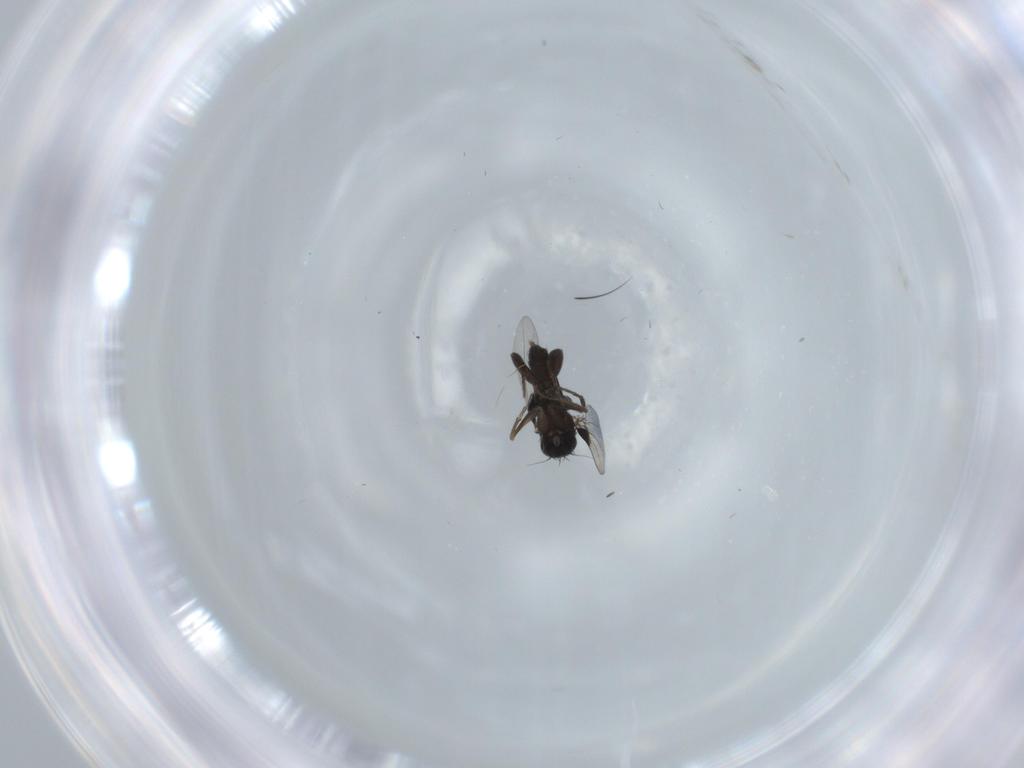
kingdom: Animalia
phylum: Arthropoda
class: Insecta
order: Diptera
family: Phoridae
